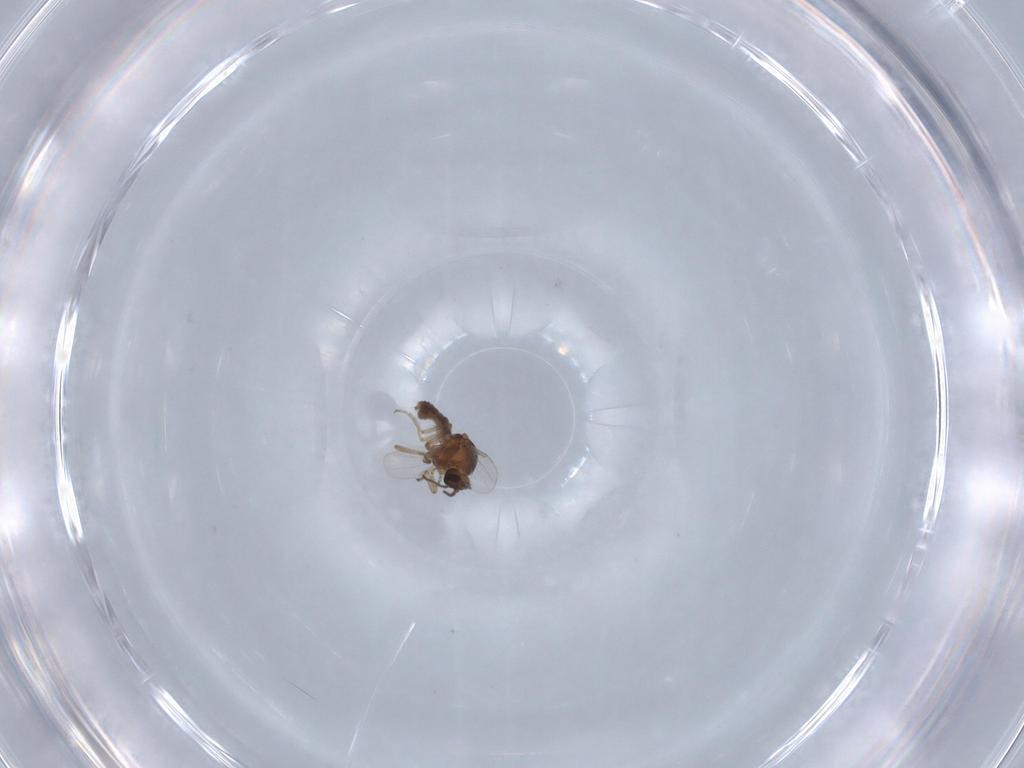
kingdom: Animalia
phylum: Arthropoda
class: Insecta
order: Diptera
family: Ceratopogonidae
